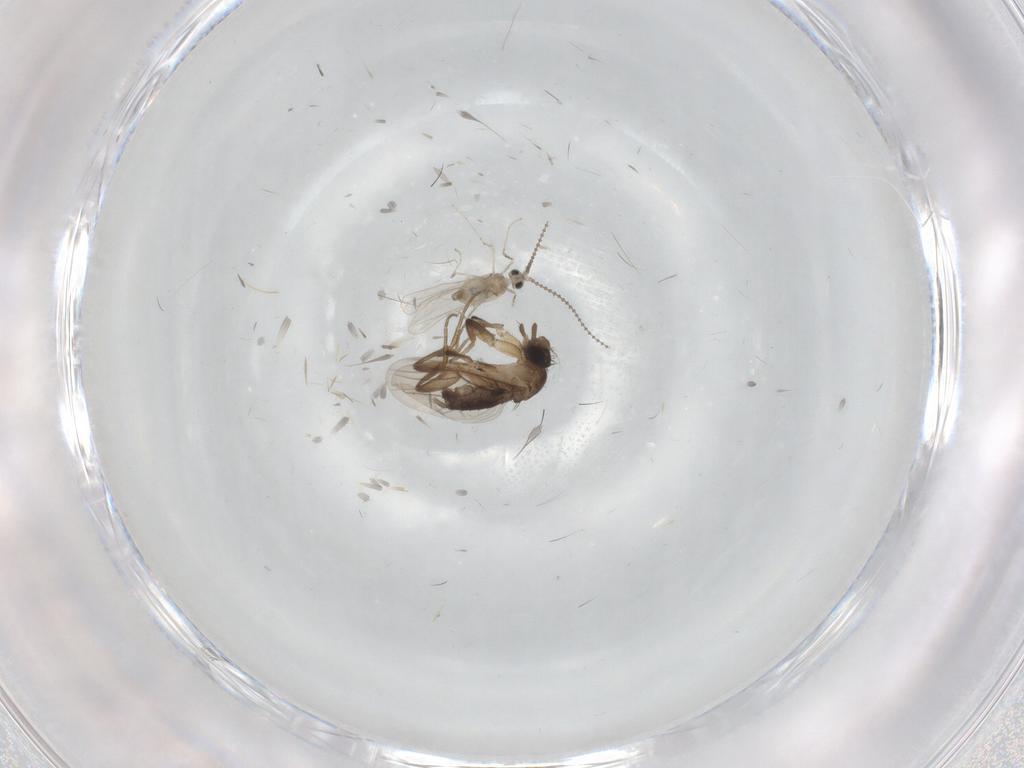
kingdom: Animalia
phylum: Arthropoda
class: Insecta
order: Diptera
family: Cecidomyiidae
